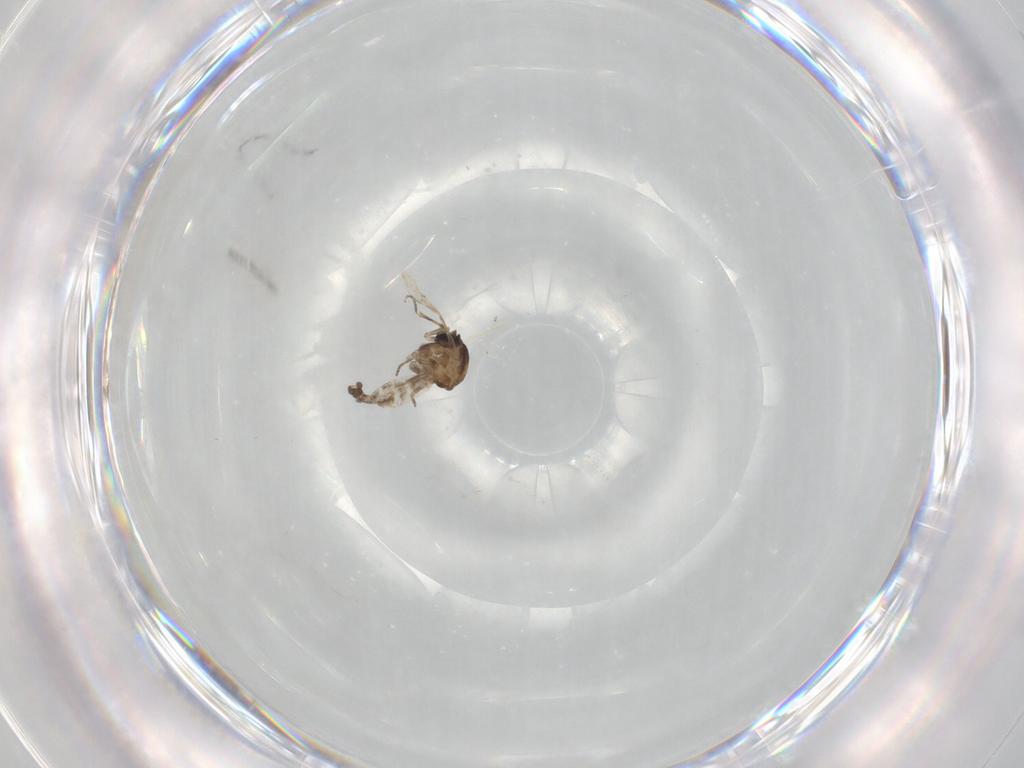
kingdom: Animalia
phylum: Arthropoda
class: Insecta
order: Diptera
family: Ceratopogonidae
